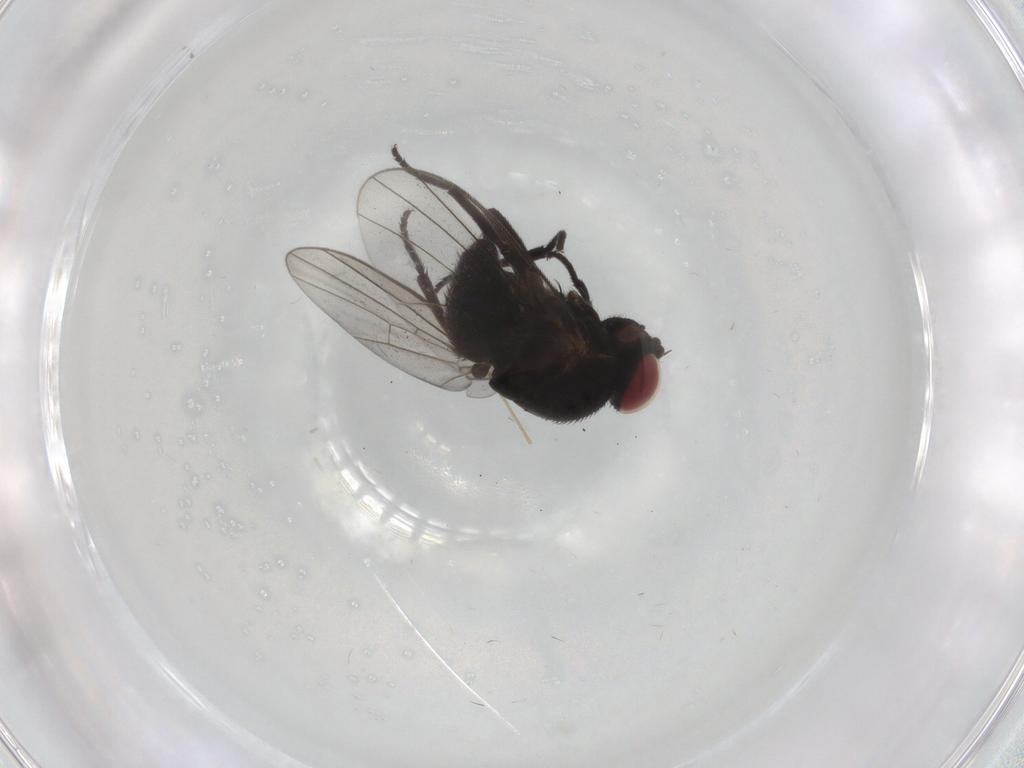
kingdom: Animalia
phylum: Arthropoda
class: Insecta
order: Diptera
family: Agromyzidae
